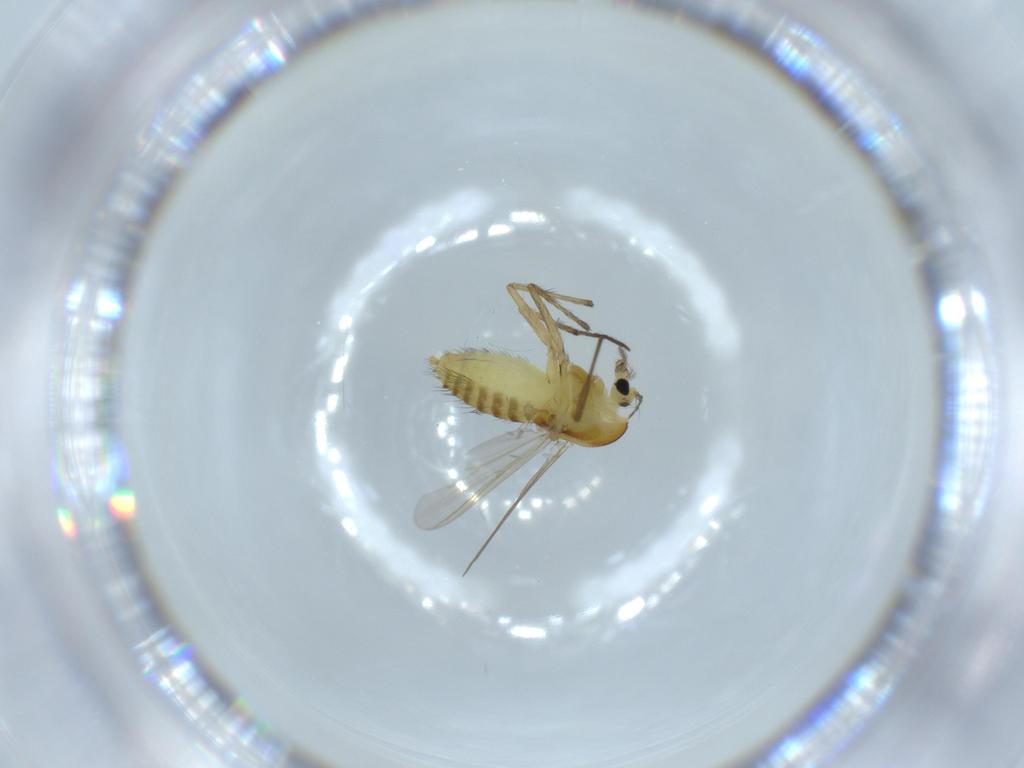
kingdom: Animalia
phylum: Arthropoda
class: Insecta
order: Diptera
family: Chironomidae
